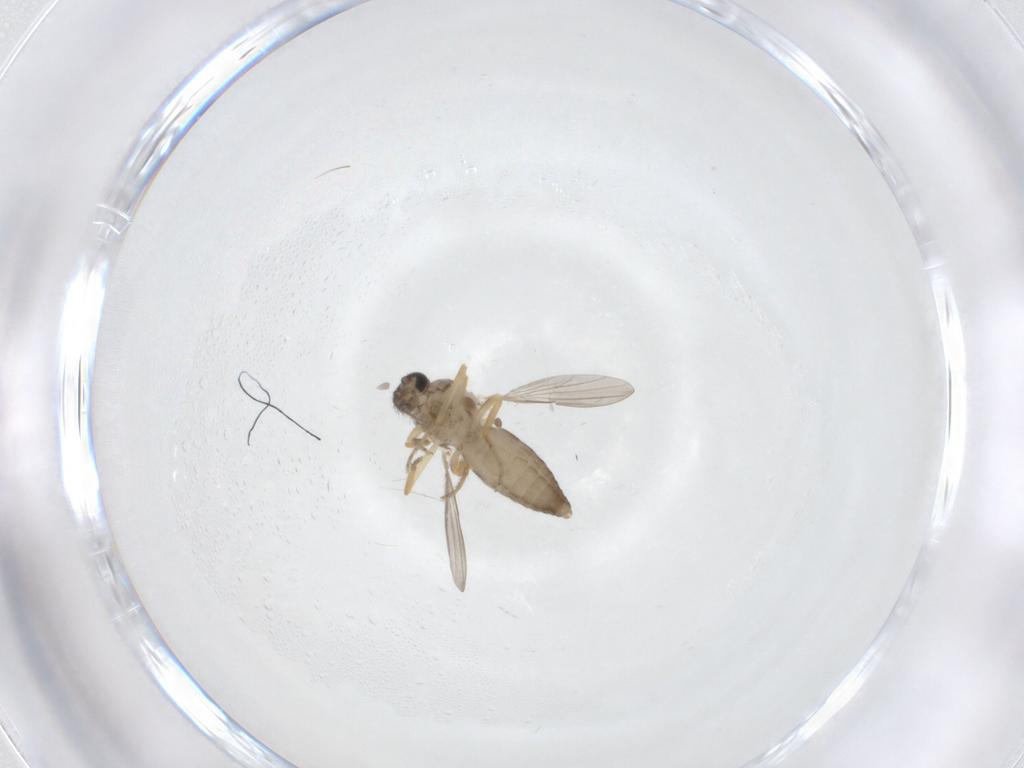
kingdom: Animalia
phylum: Arthropoda
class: Insecta
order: Diptera
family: Ceratopogonidae
